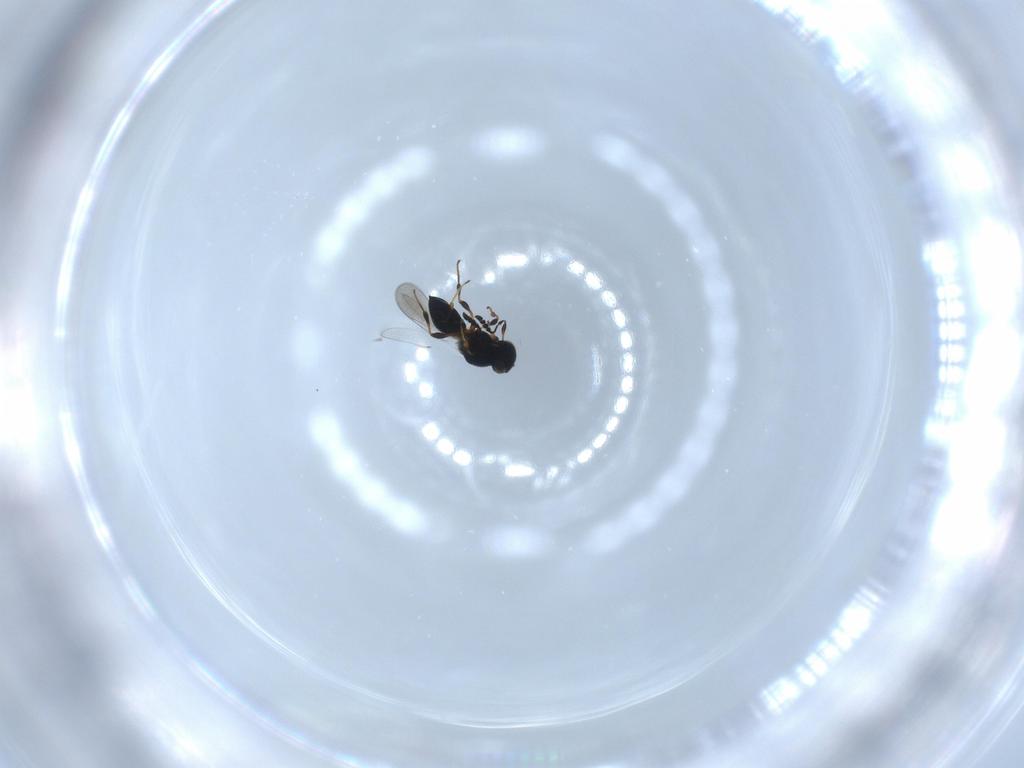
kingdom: Animalia
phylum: Arthropoda
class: Insecta
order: Hymenoptera
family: Platygastridae
